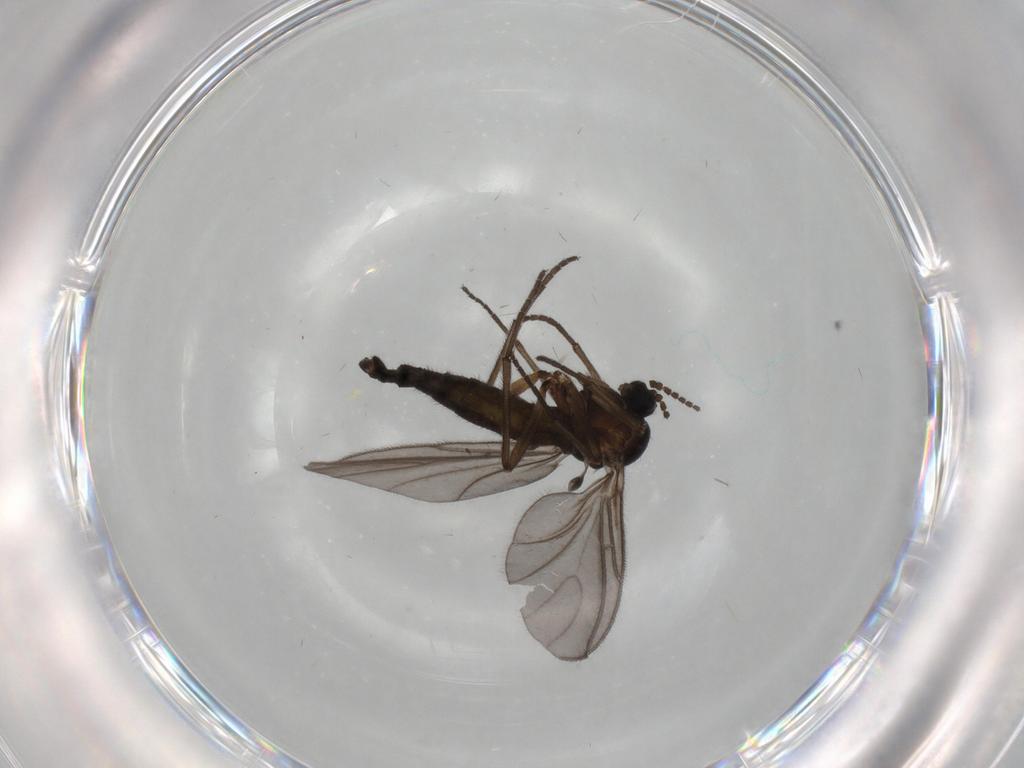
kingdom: Animalia
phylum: Arthropoda
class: Insecta
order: Diptera
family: Sciaridae
